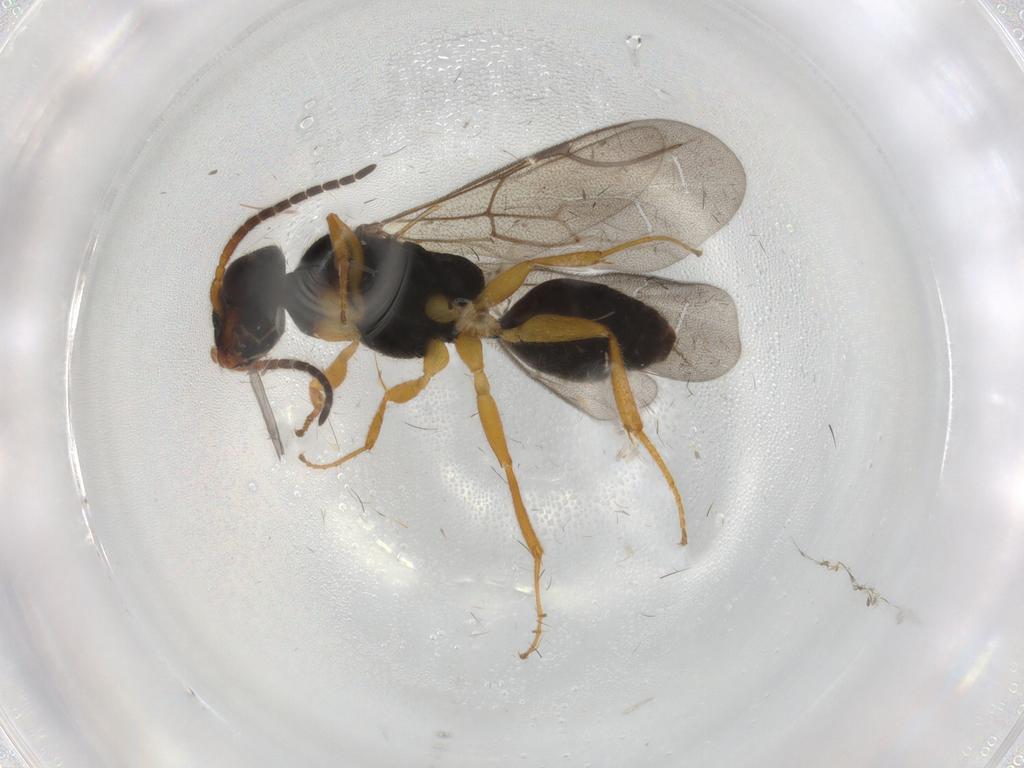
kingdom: Animalia
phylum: Arthropoda
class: Insecta
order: Hymenoptera
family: Bethylidae
